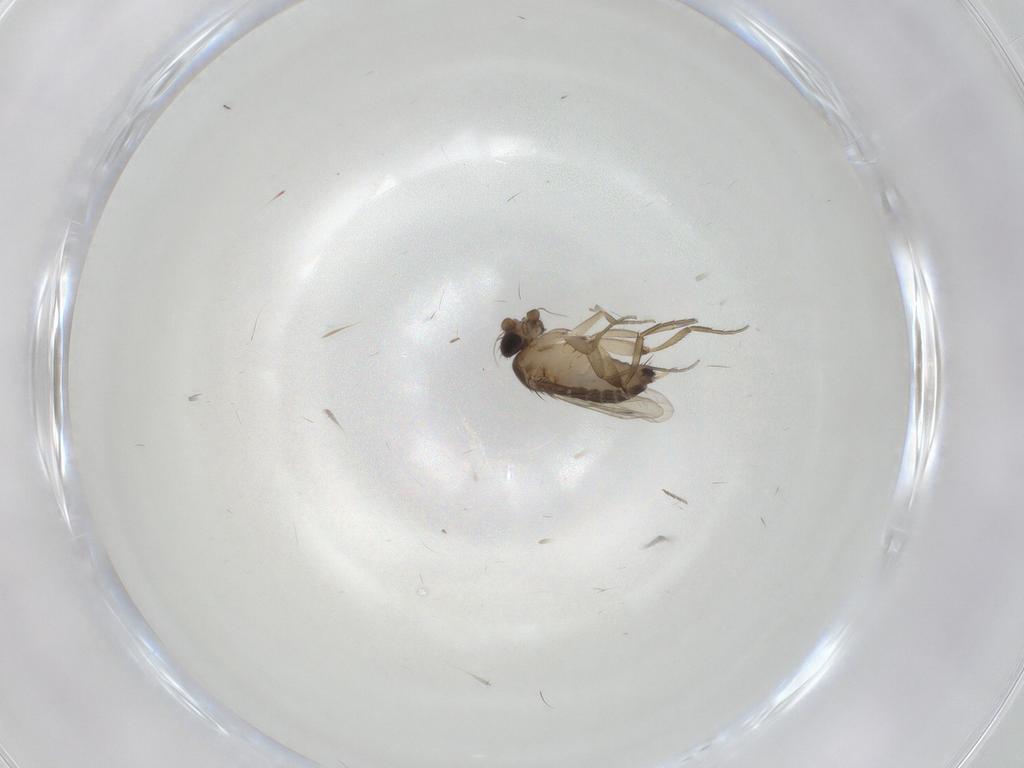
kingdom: Animalia
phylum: Arthropoda
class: Insecta
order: Diptera
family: Phoridae
